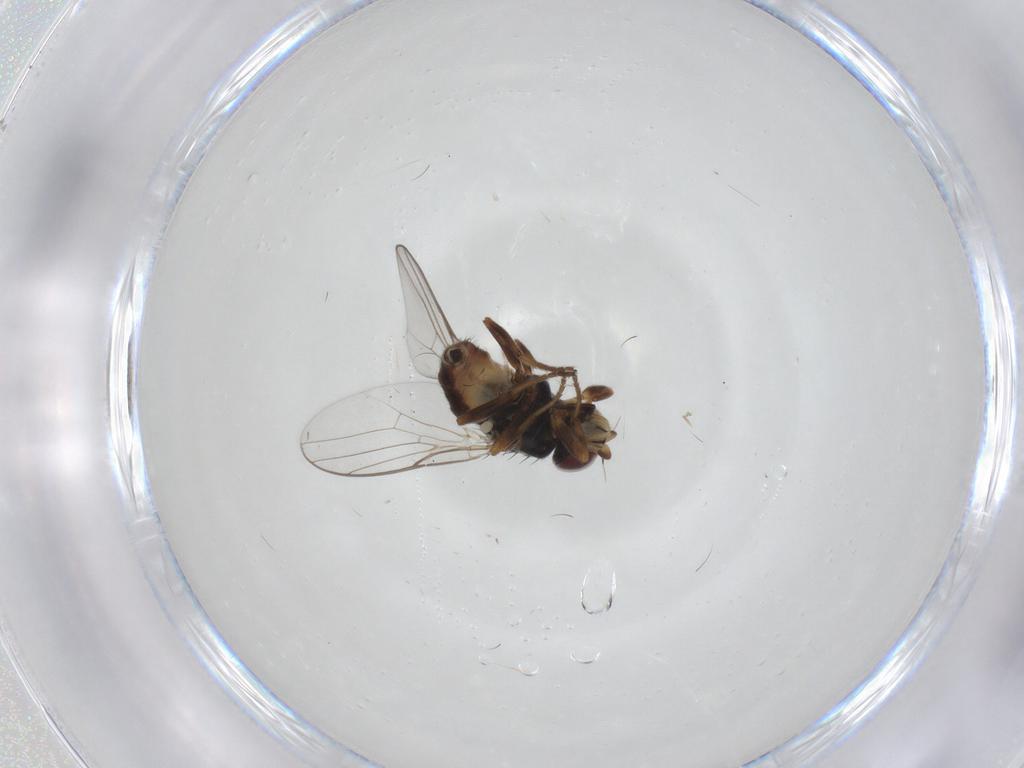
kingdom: Animalia
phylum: Arthropoda
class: Insecta
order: Diptera
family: Chloropidae
